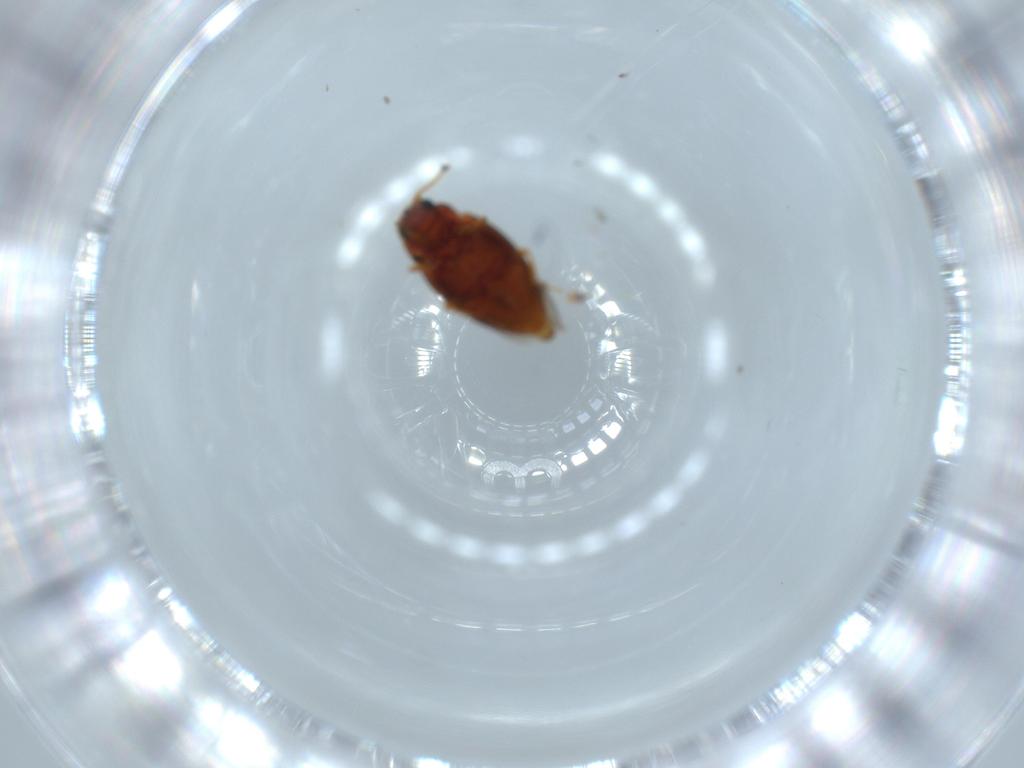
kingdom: Animalia
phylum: Arthropoda
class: Insecta
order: Coleoptera
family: Erotylidae
